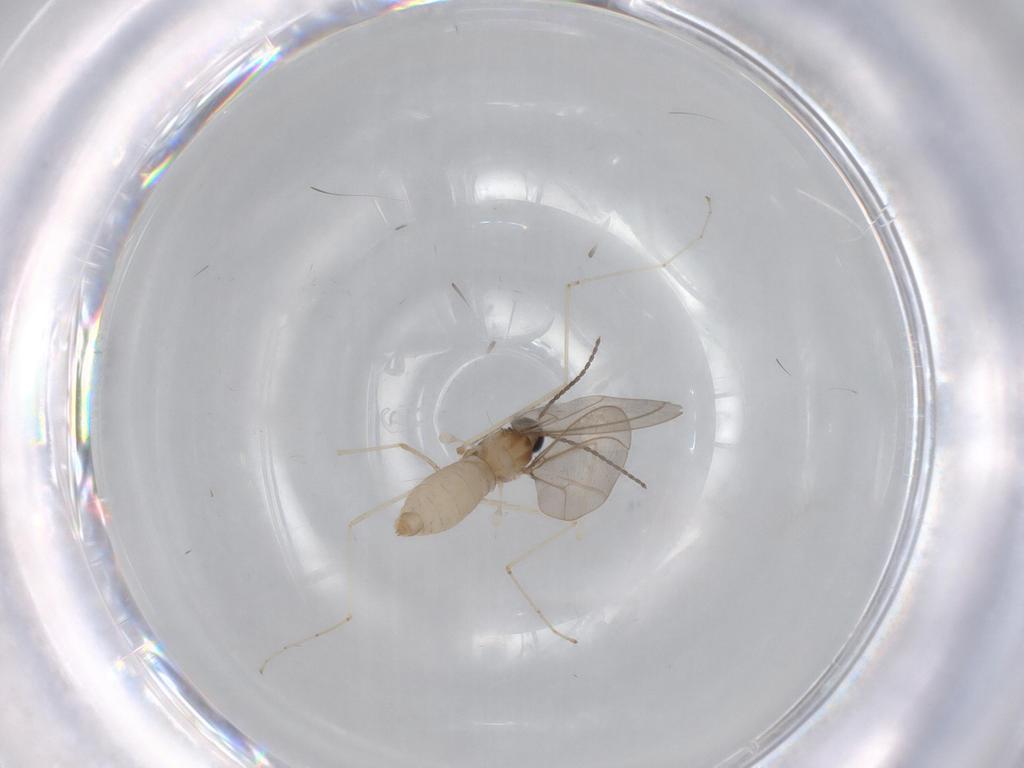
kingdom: Animalia
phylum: Arthropoda
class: Insecta
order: Diptera
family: Cecidomyiidae
